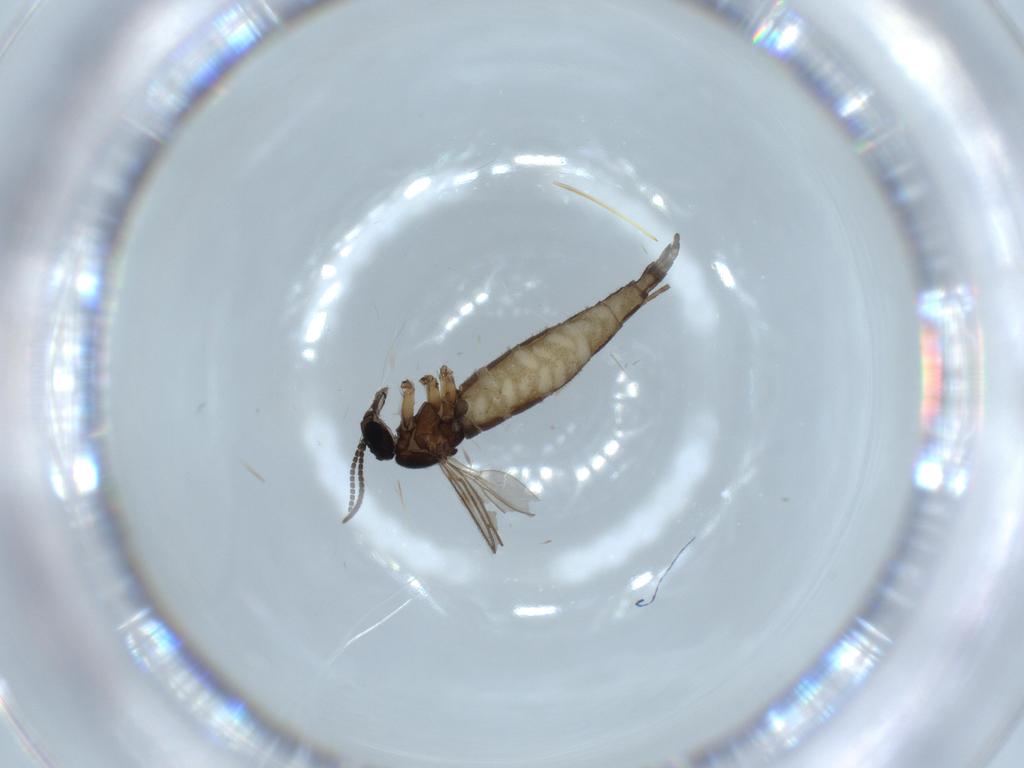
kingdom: Animalia
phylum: Arthropoda
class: Insecta
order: Diptera
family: Sciaridae
